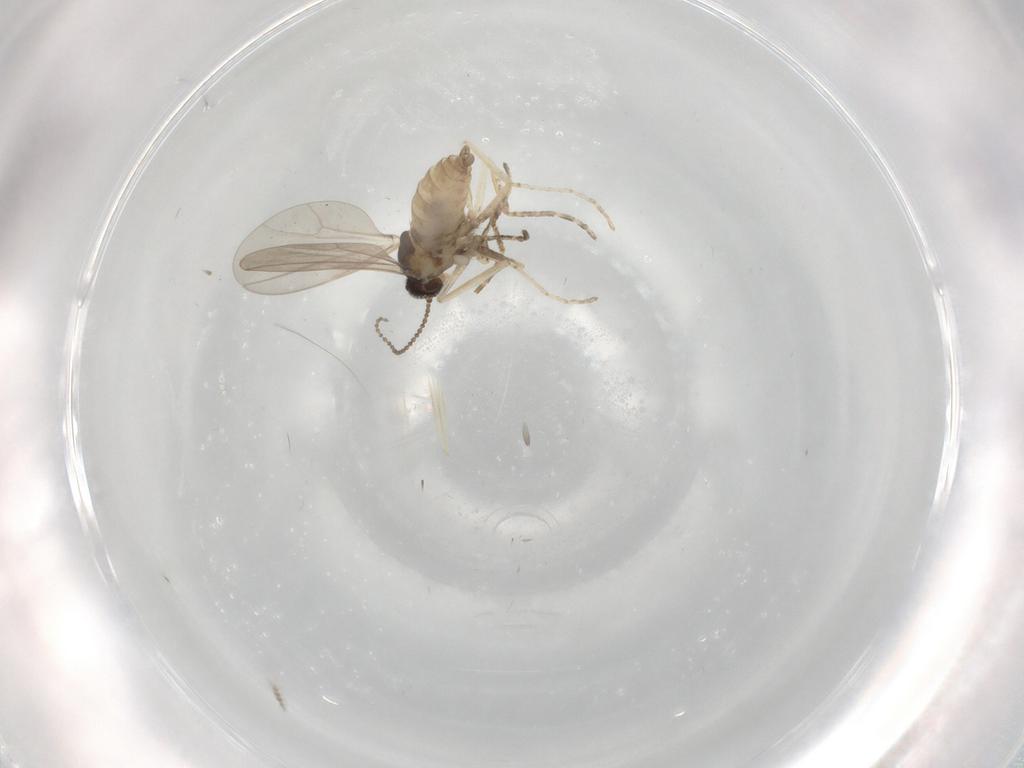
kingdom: Animalia
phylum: Arthropoda
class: Insecta
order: Diptera
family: Cecidomyiidae
